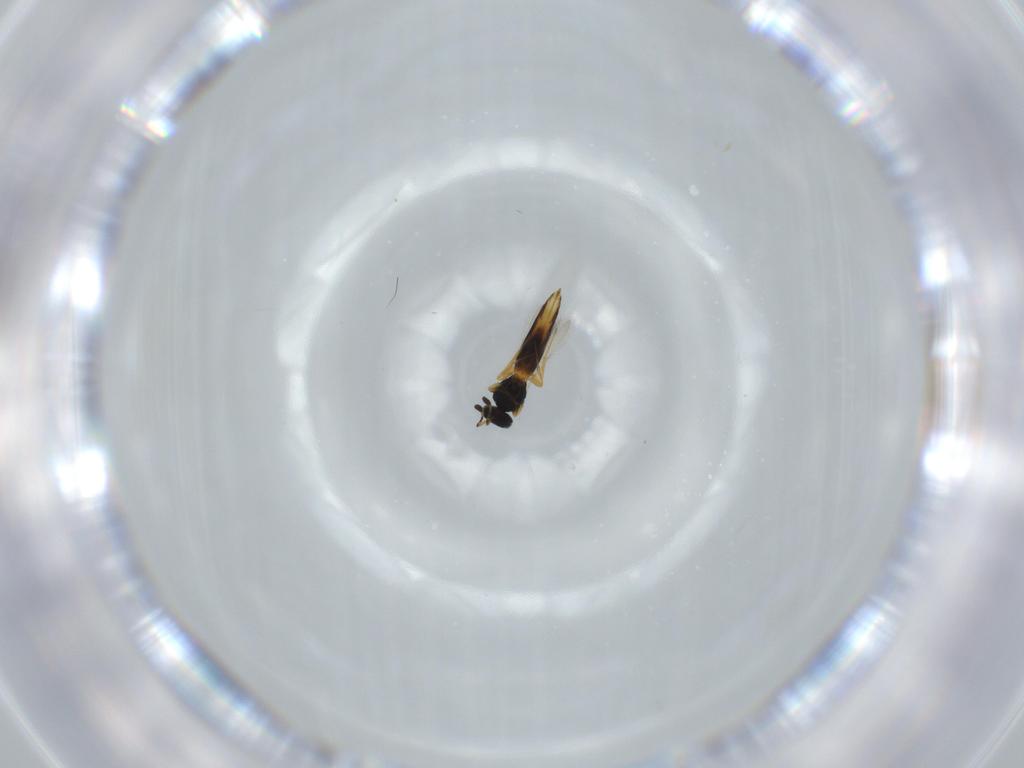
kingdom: Animalia
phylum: Arthropoda
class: Insecta
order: Hymenoptera
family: Scelionidae
